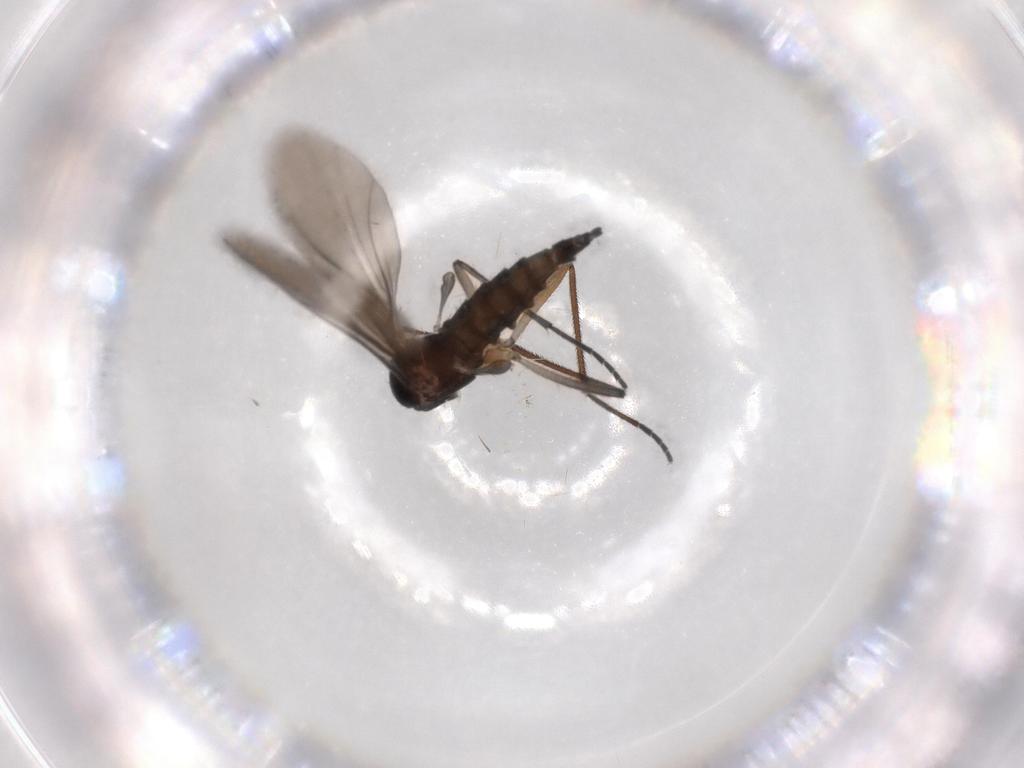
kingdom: Animalia
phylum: Arthropoda
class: Insecta
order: Diptera
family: Sciaridae
